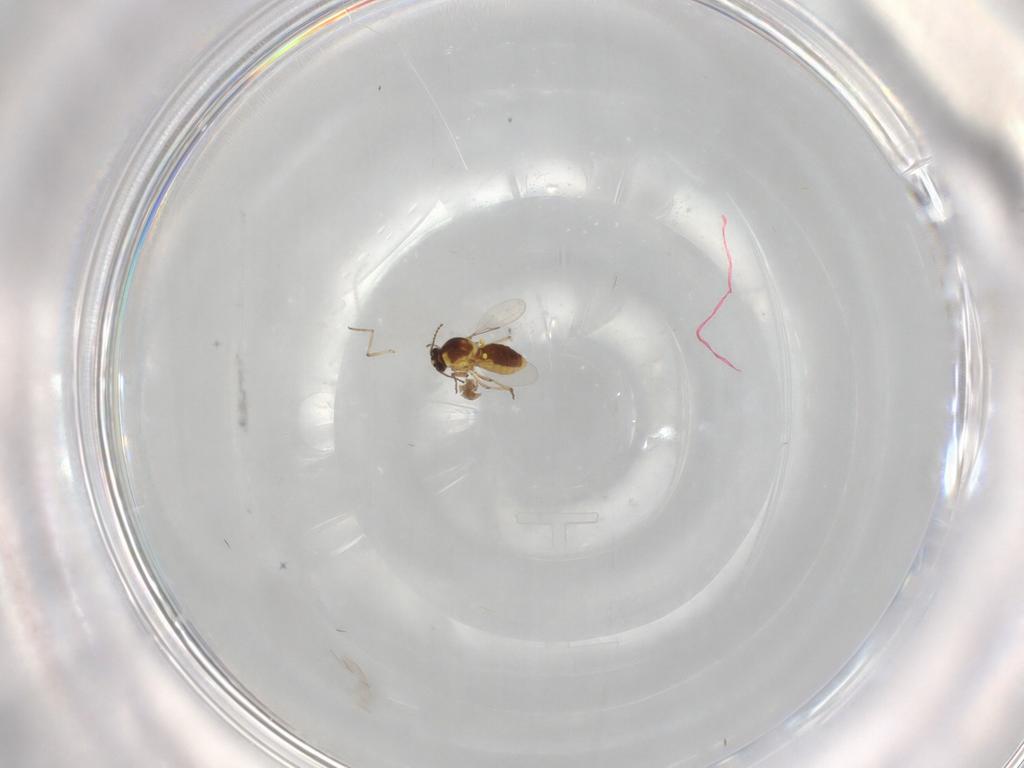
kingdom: Animalia
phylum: Arthropoda
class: Insecta
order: Diptera
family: Ceratopogonidae
